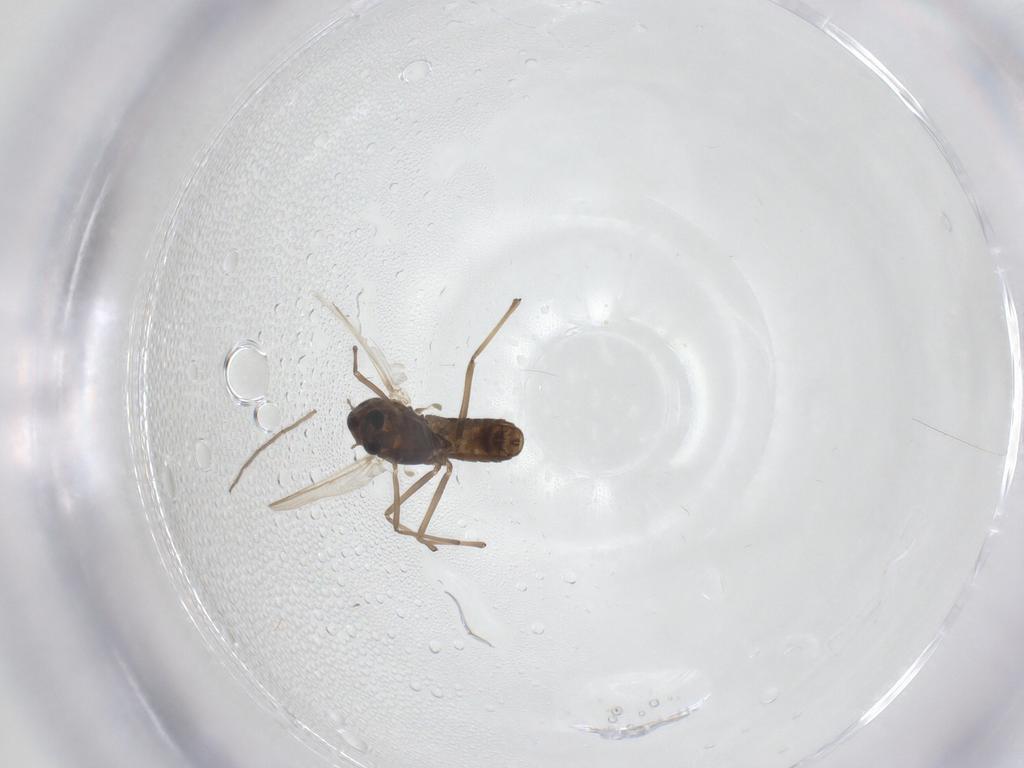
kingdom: Animalia
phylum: Arthropoda
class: Insecta
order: Diptera
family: Chironomidae
